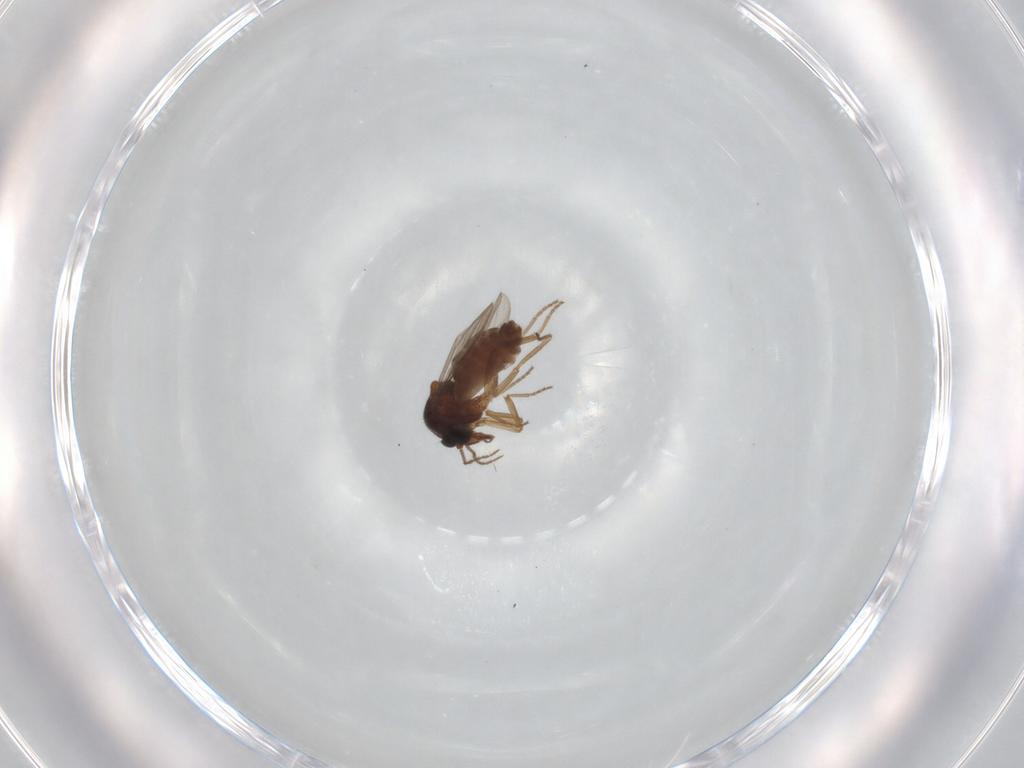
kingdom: Animalia
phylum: Arthropoda
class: Insecta
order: Diptera
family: Ceratopogonidae
